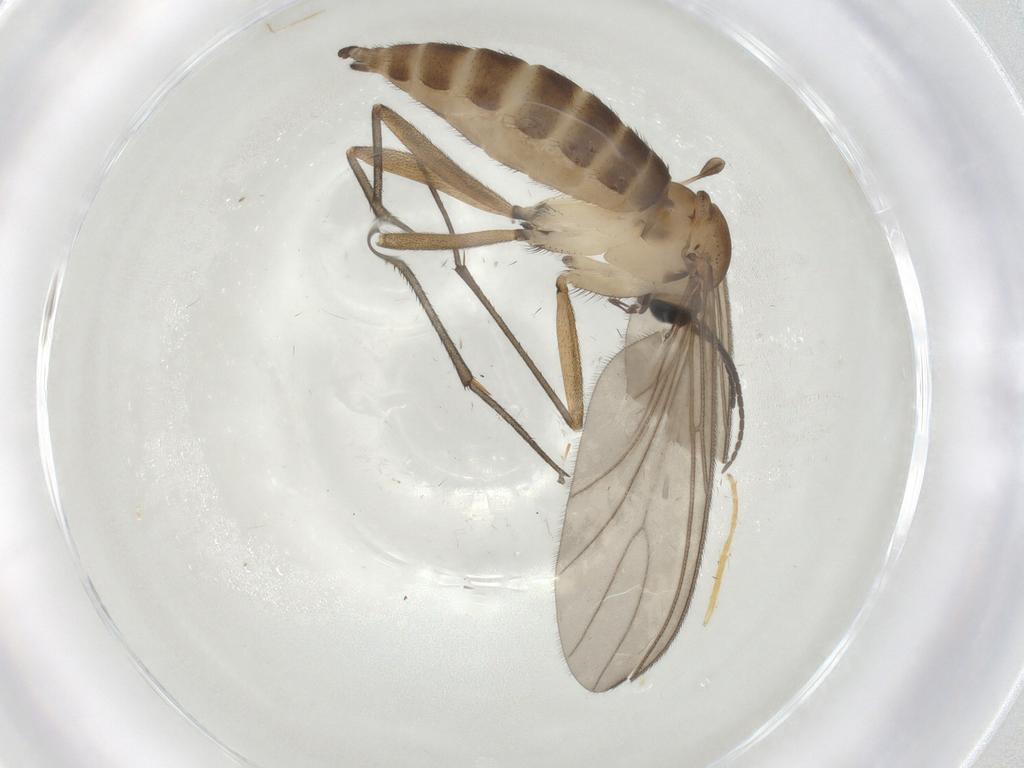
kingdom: Animalia
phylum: Arthropoda
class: Insecta
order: Diptera
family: Sciaridae
